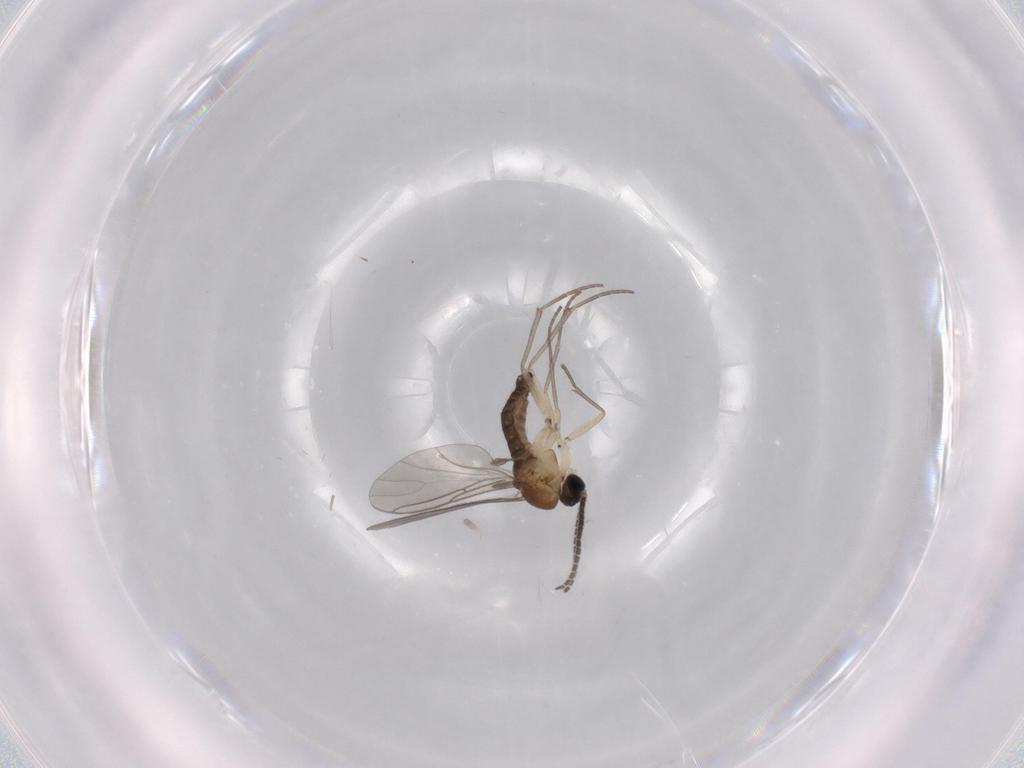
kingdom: Animalia
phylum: Arthropoda
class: Insecta
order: Diptera
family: Sciaridae
